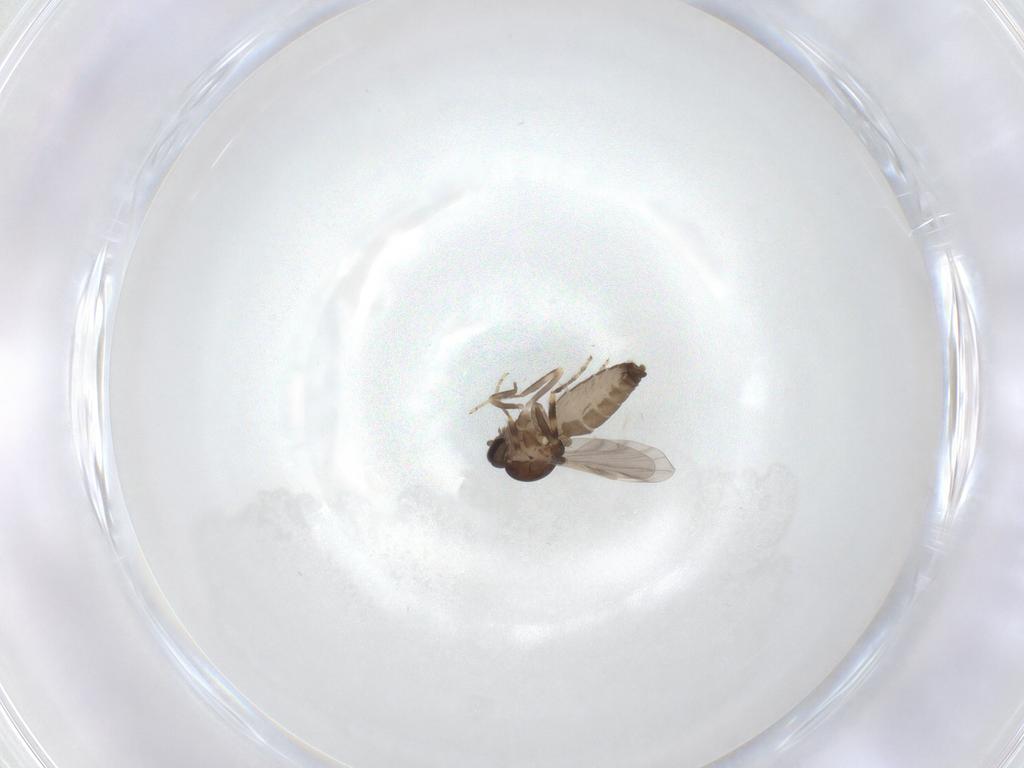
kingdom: Animalia
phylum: Arthropoda
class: Insecta
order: Diptera
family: Ceratopogonidae
